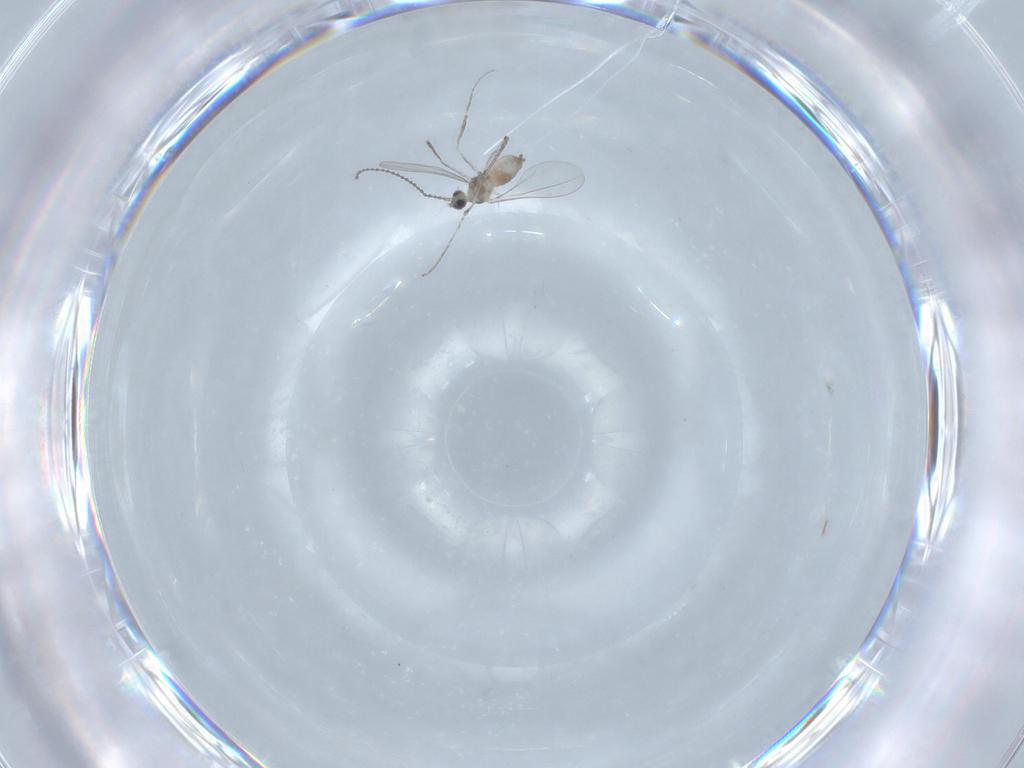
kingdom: Animalia
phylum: Arthropoda
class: Insecta
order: Diptera
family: Cecidomyiidae
